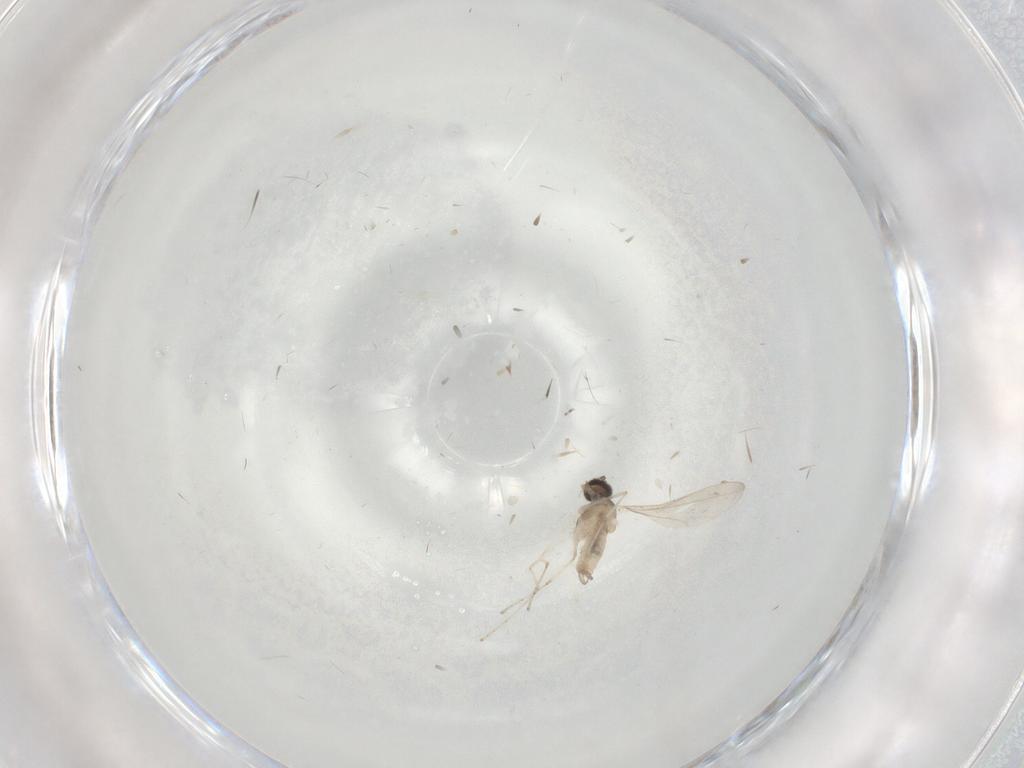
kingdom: Animalia
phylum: Arthropoda
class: Insecta
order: Diptera
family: Cecidomyiidae
